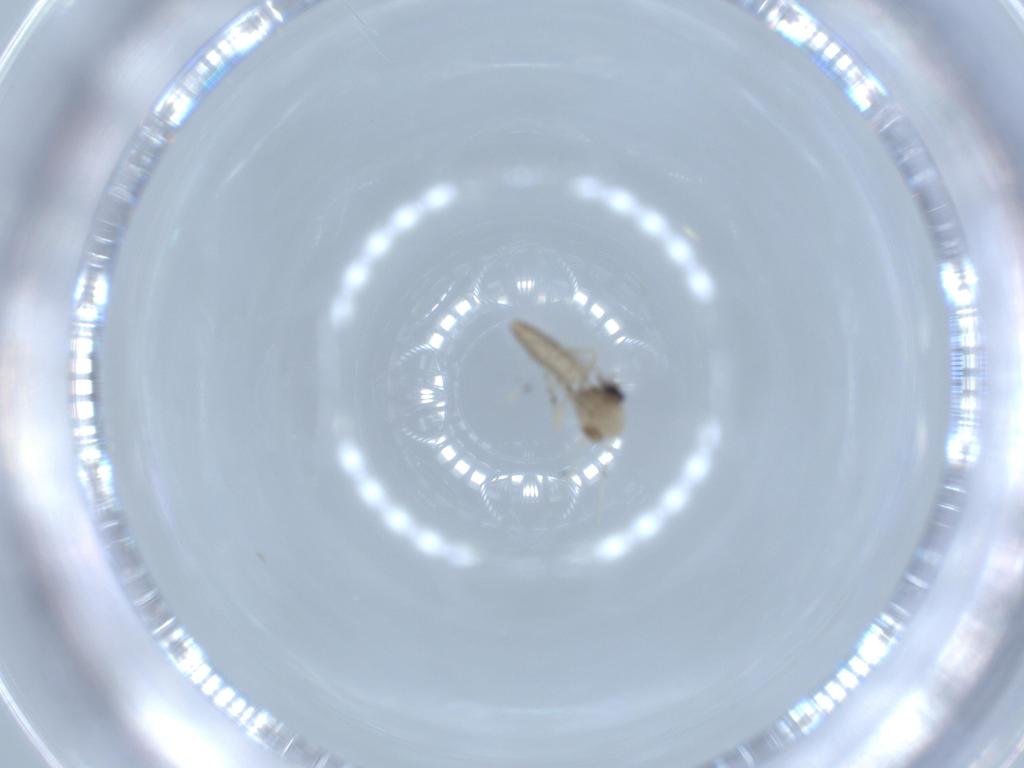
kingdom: Animalia
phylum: Arthropoda
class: Insecta
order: Diptera
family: Ceratopogonidae
